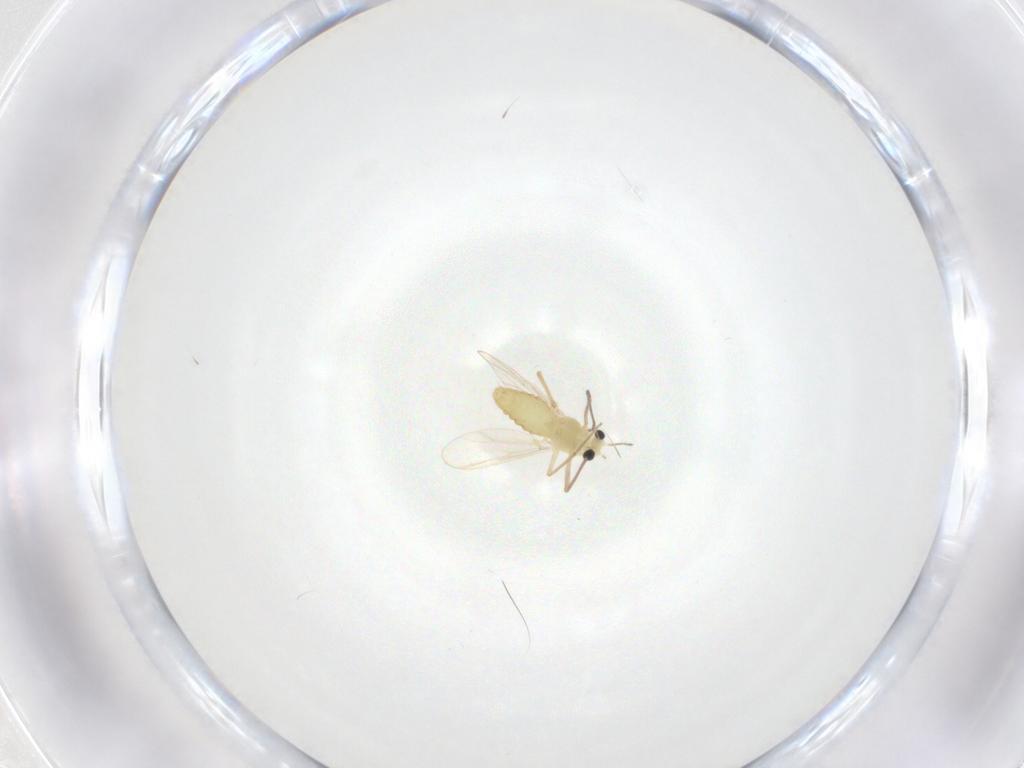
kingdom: Animalia
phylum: Arthropoda
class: Insecta
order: Diptera
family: Chironomidae
